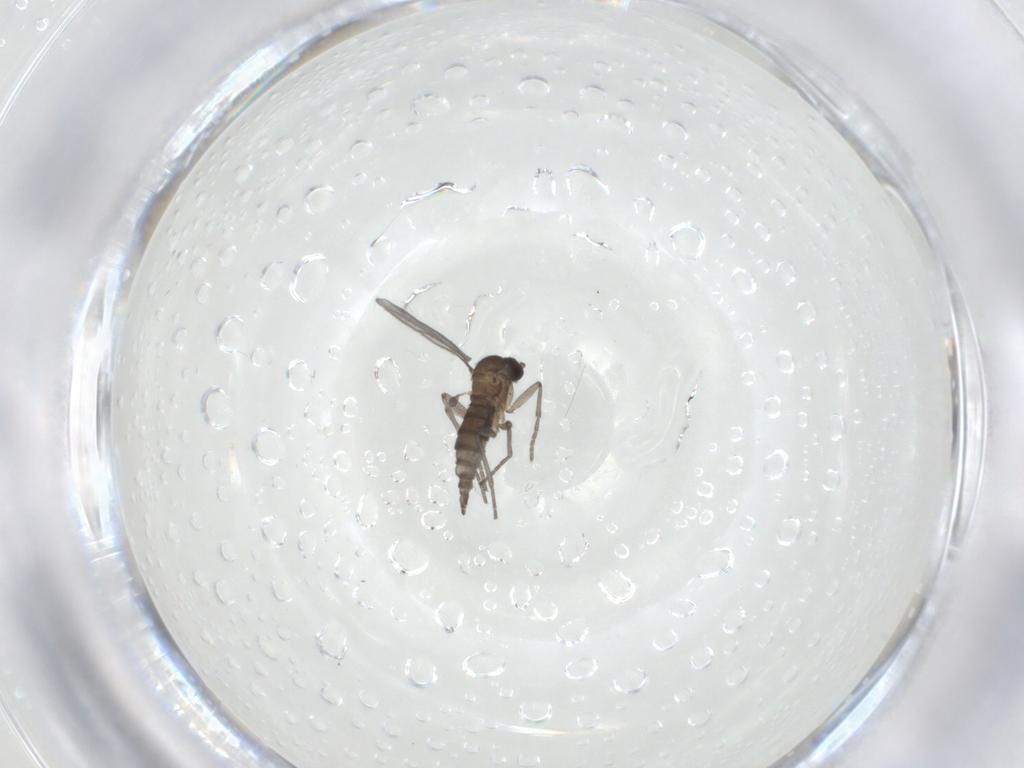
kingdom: Animalia
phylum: Arthropoda
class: Insecta
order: Diptera
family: Sciaridae
